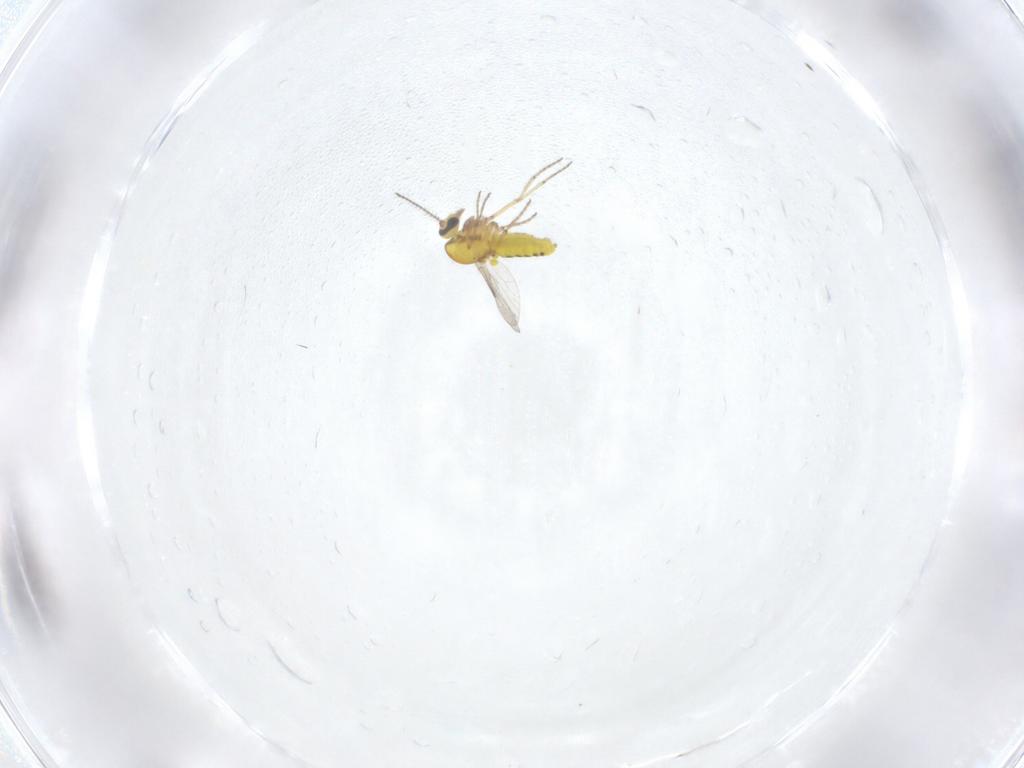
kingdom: Animalia
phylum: Arthropoda
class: Insecta
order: Diptera
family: Ceratopogonidae
